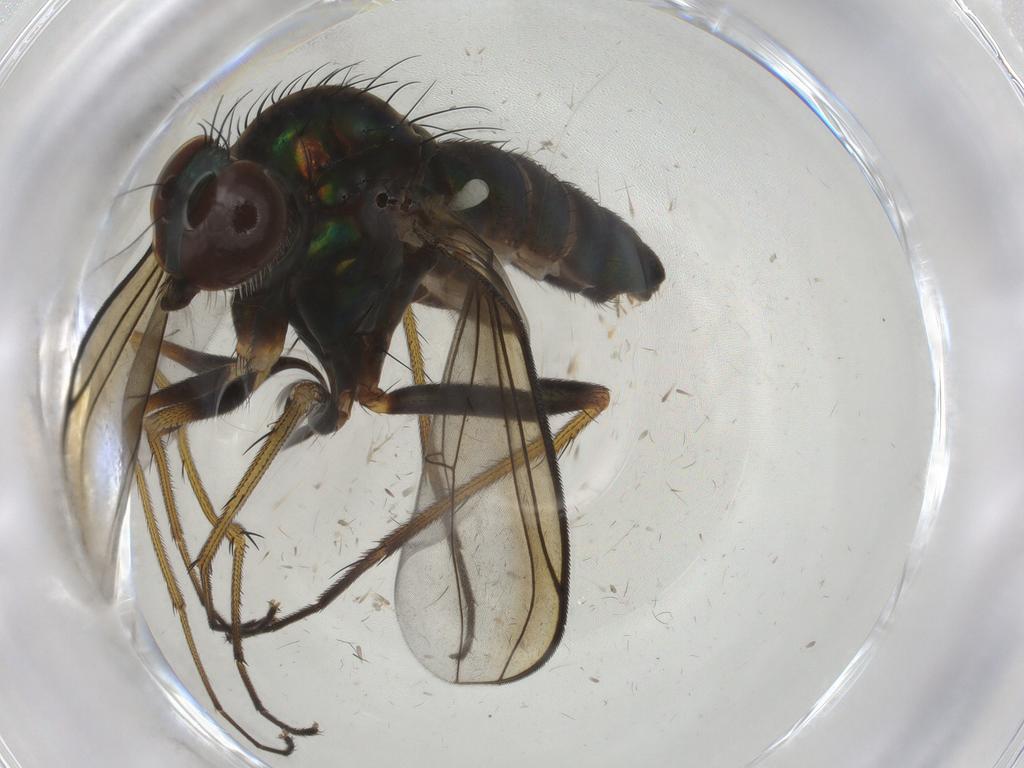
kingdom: Animalia
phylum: Arthropoda
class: Insecta
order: Diptera
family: Dolichopodidae
